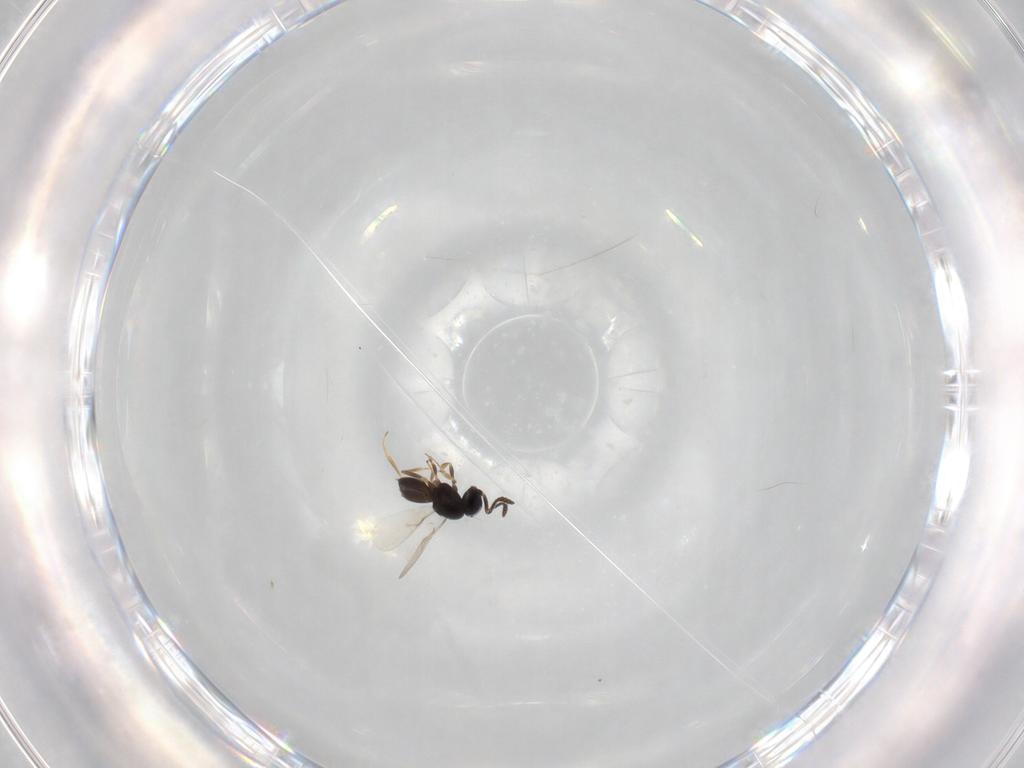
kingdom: Animalia
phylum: Arthropoda
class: Insecta
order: Hymenoptera
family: Scelionidae
